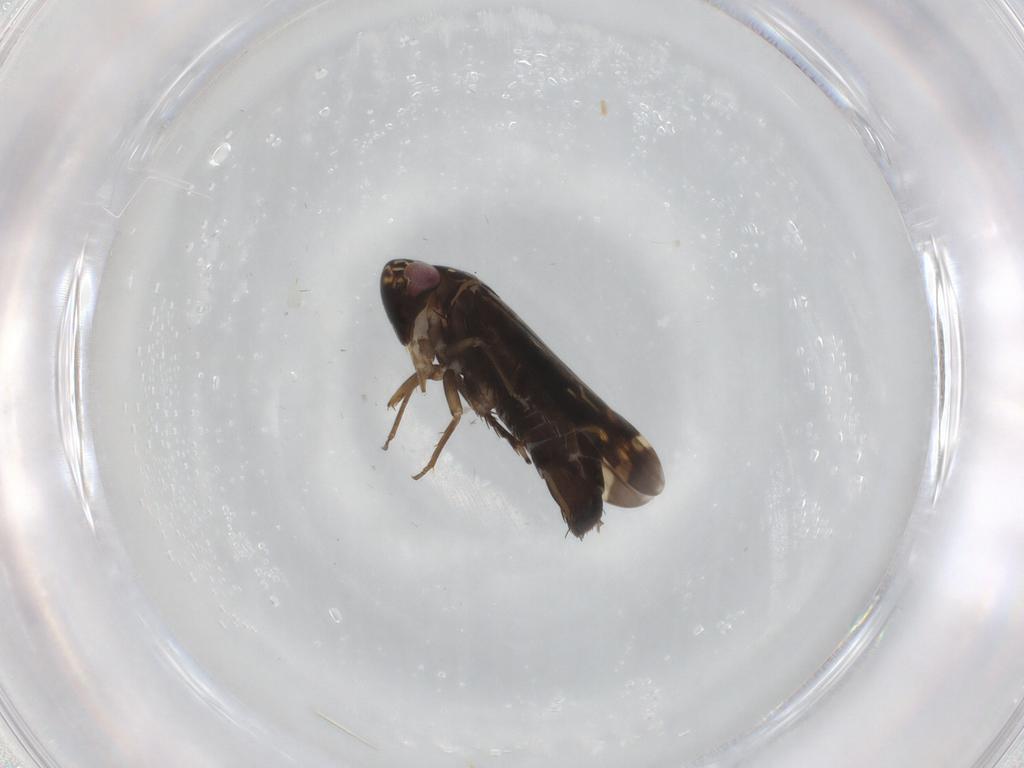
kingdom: Animalia
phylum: Arthropoda
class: Insecta
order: Hemiptera
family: Cicadellidae
